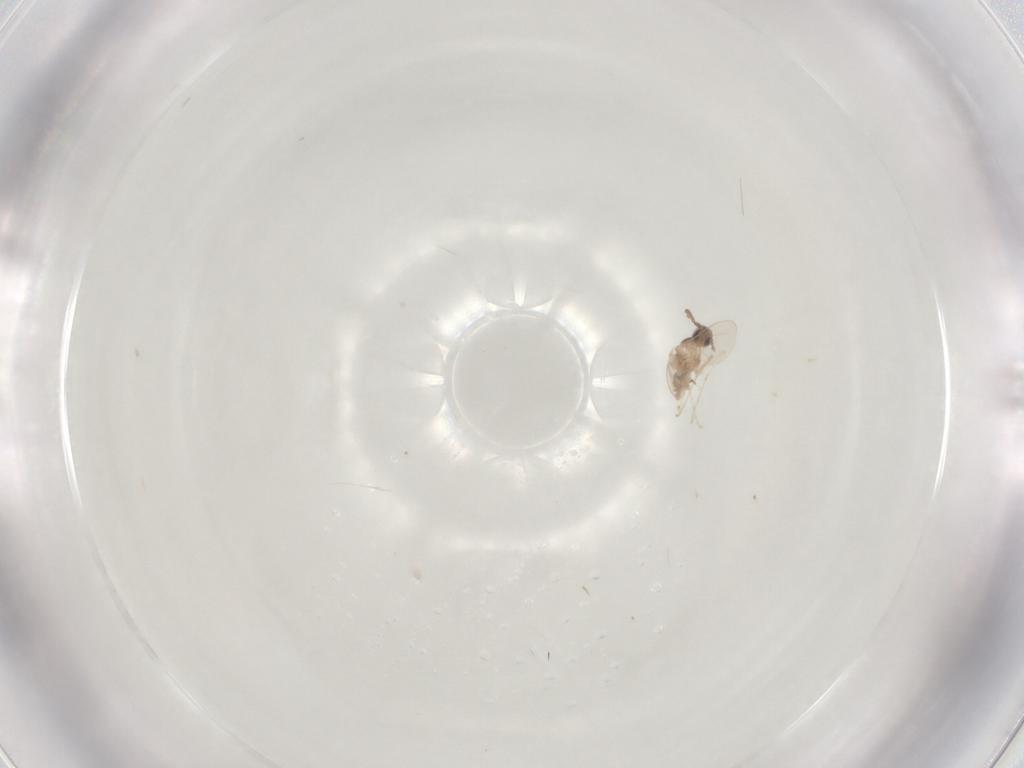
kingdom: Animalia
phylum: Arthropoda
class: Insecta
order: Diptera
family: Cecidomyiidae
